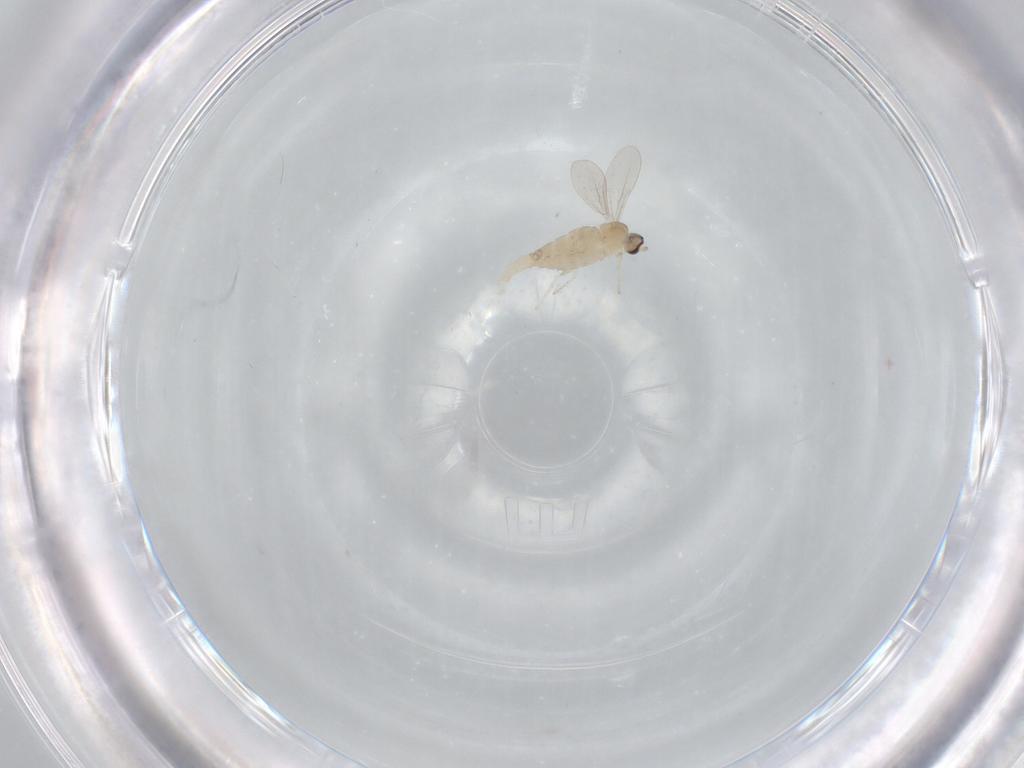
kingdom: Animalia
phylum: Arthropoda
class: Insecta
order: Diptera
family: Cecidomyiidae
